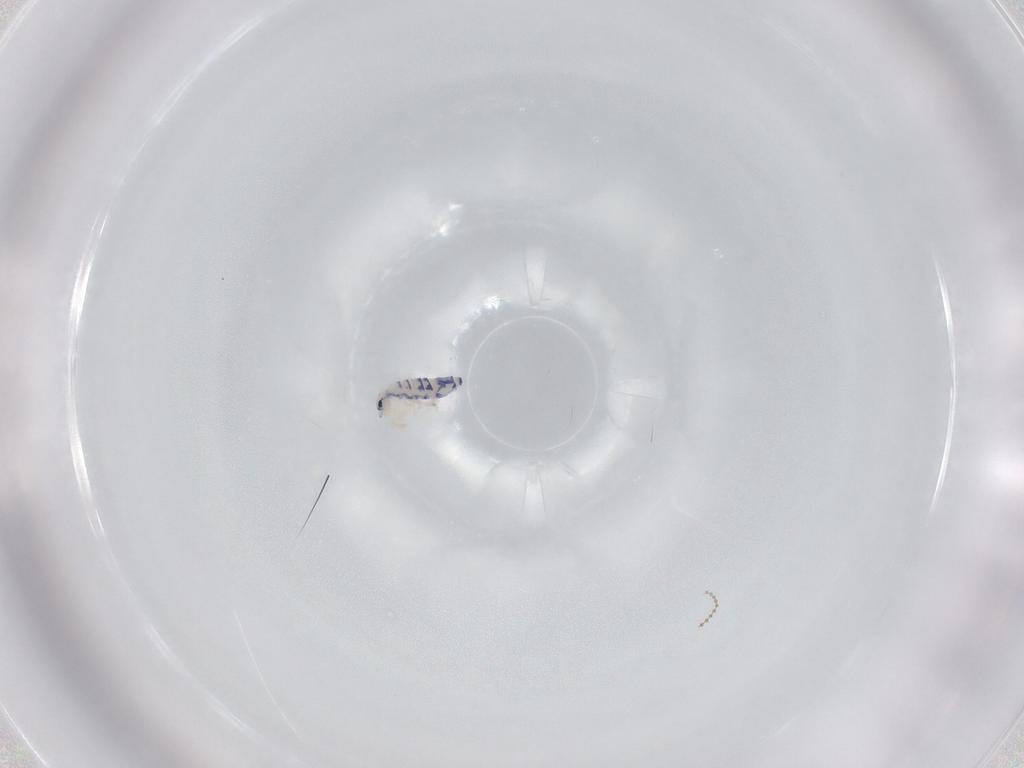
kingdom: Animalia
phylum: Arthropoda
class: Collembola
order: Entomobryomorpha
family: Entomobryidae
